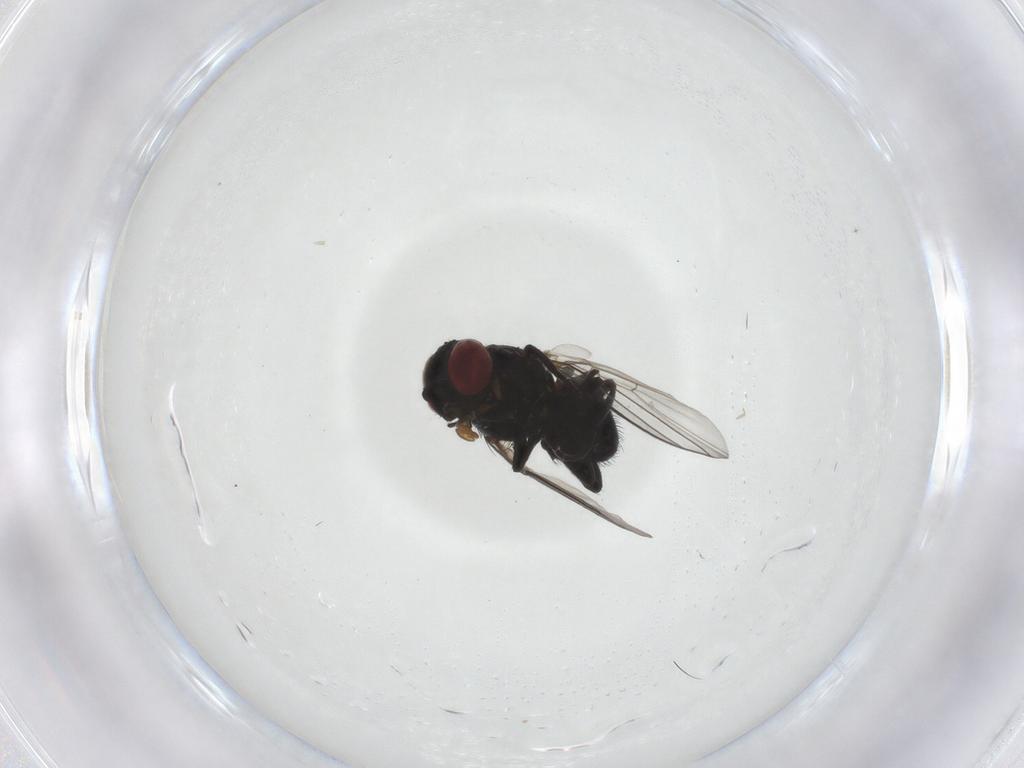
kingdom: Animalia
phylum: Arthropoda
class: Insecta
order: Diptera
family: Agromyzidae
